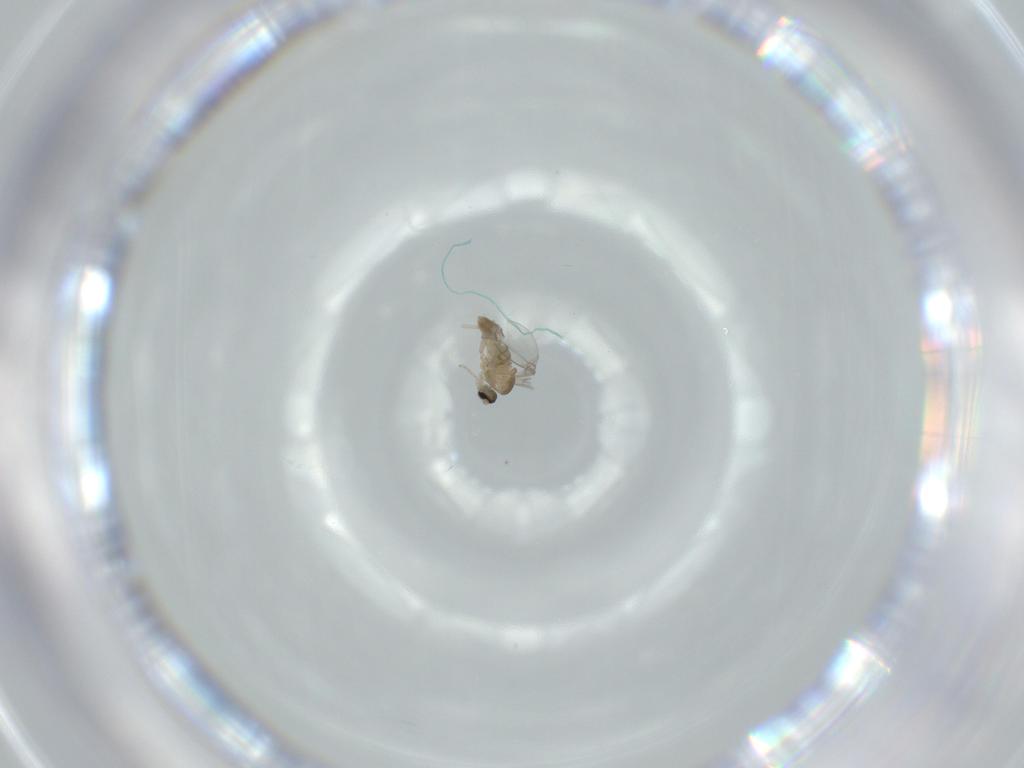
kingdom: Animalia
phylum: Arthropoda
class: Insecta
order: Diptera
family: Cecidomyiidae
